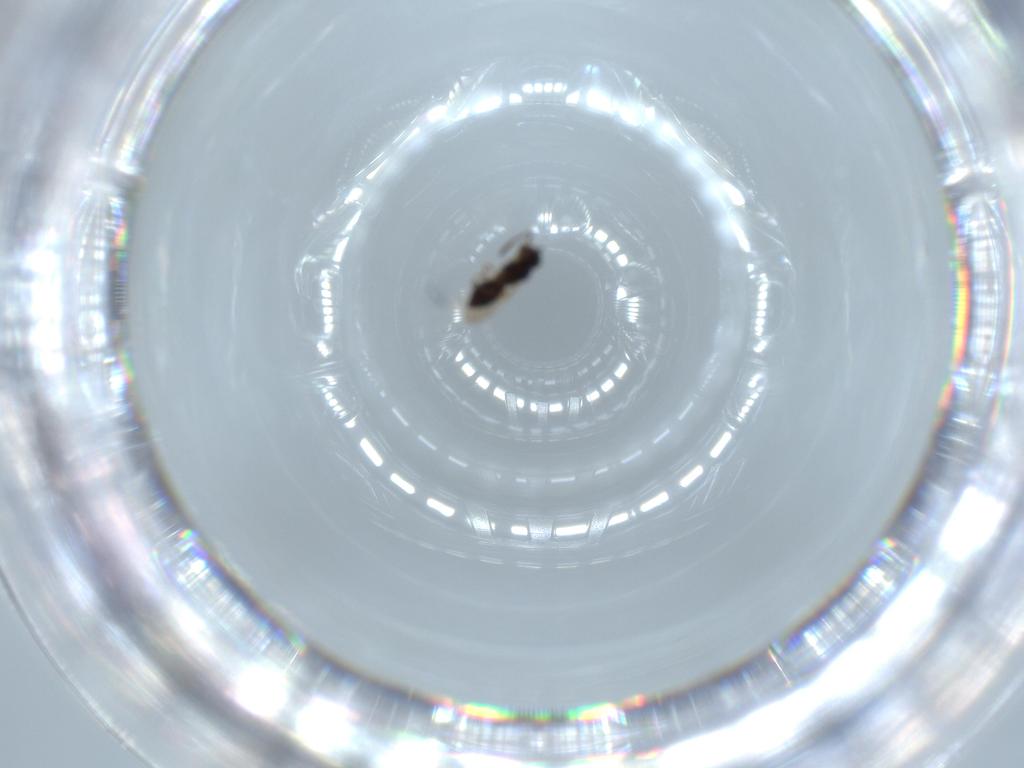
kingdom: Animalia
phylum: Arthropoda
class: Insecta
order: Hymenoptera
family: Scelionidae
